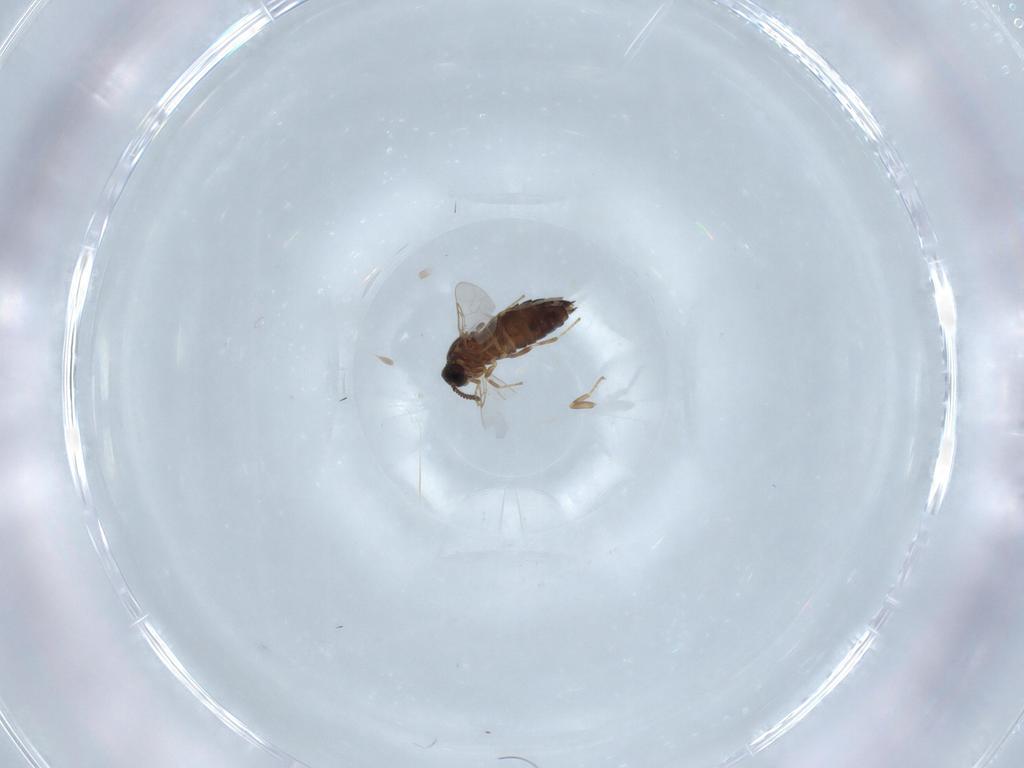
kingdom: Animalia
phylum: Arthropoda
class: Insecta
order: Diptera
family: Scatopsidae
